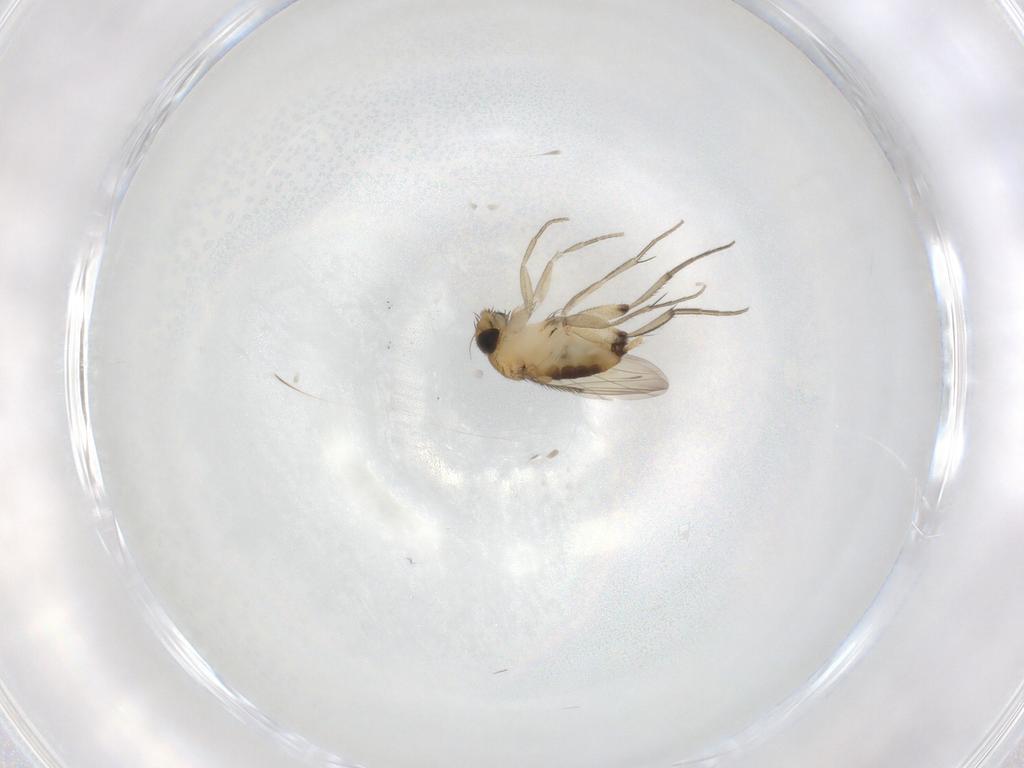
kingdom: Animalia
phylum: Arthropoda
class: Insecta
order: Diptera
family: Phoridae
